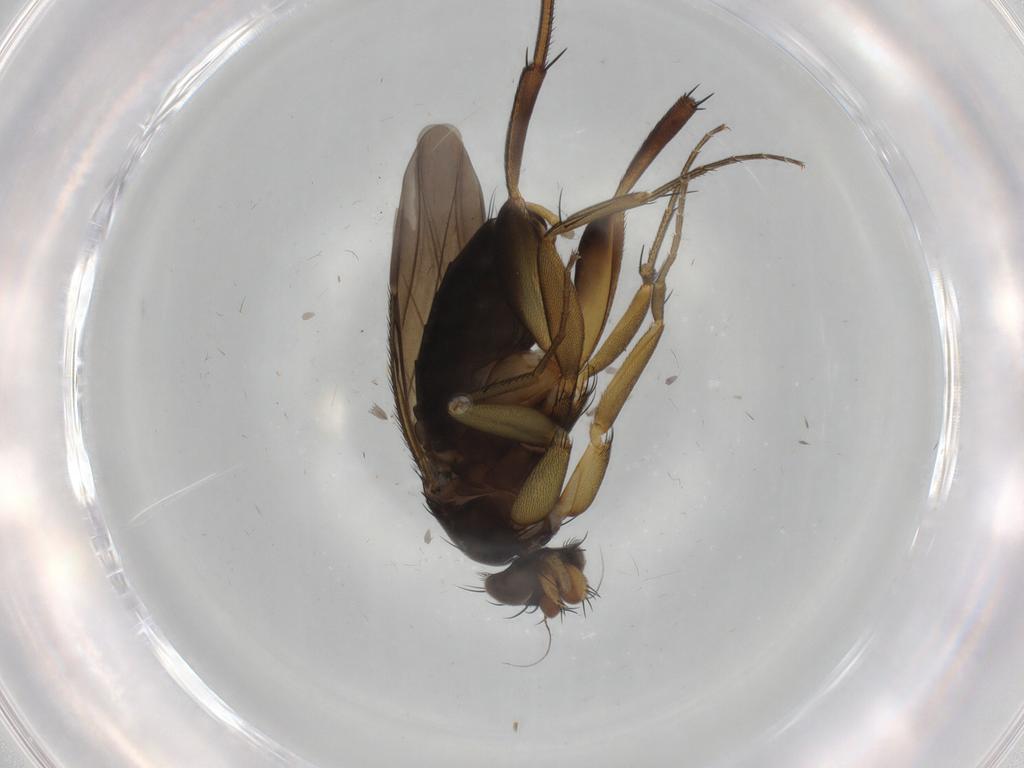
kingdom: Animalia
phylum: Arthropoda
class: Insecta
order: Diptera
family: Phoridae
